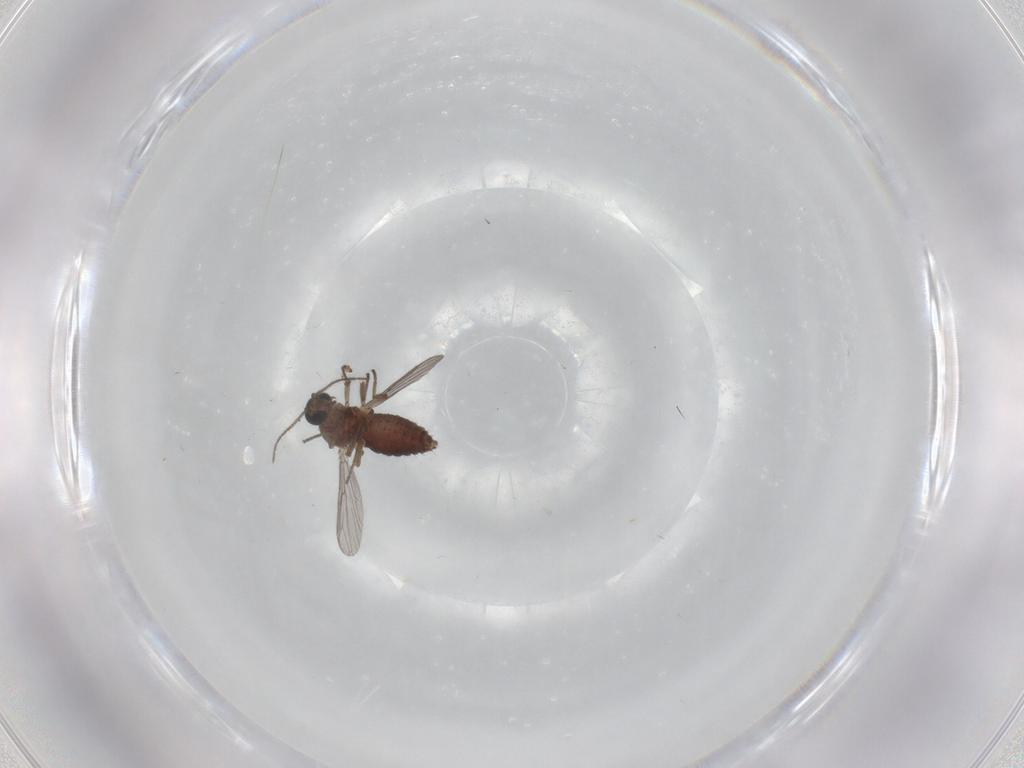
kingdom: Animalia
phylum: Arthropoda
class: Insecta
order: Diptera
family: Ceratopogonidae
